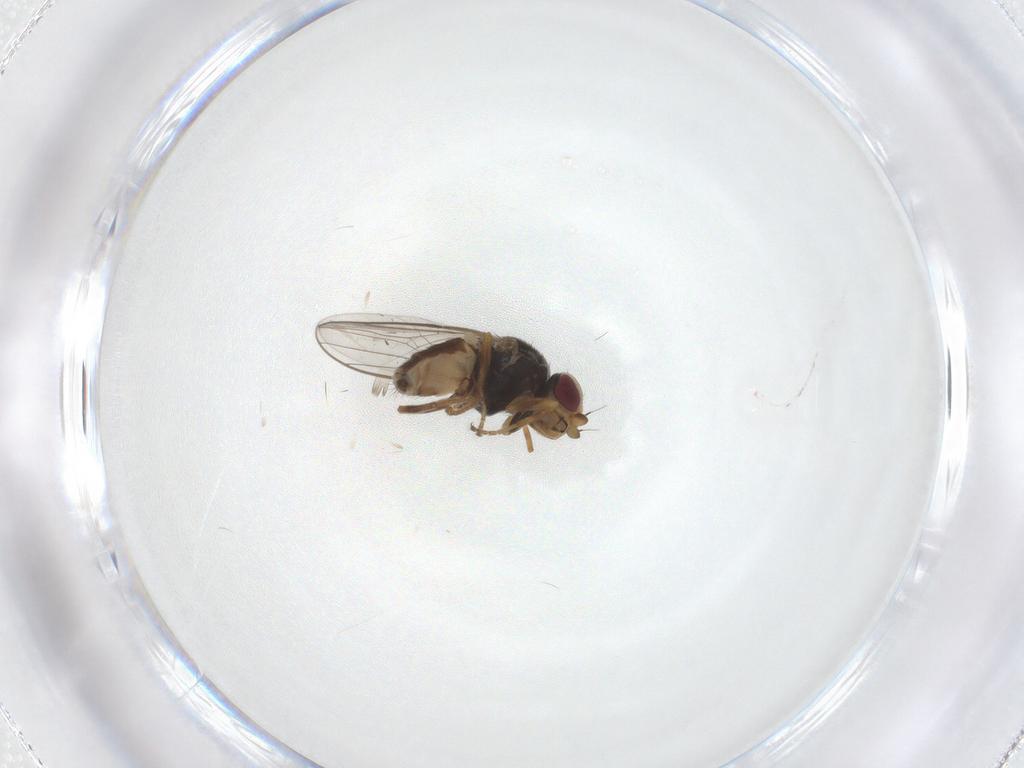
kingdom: Animalia
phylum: Arthropoda
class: Insecta
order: Diptera
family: Chloropidae
